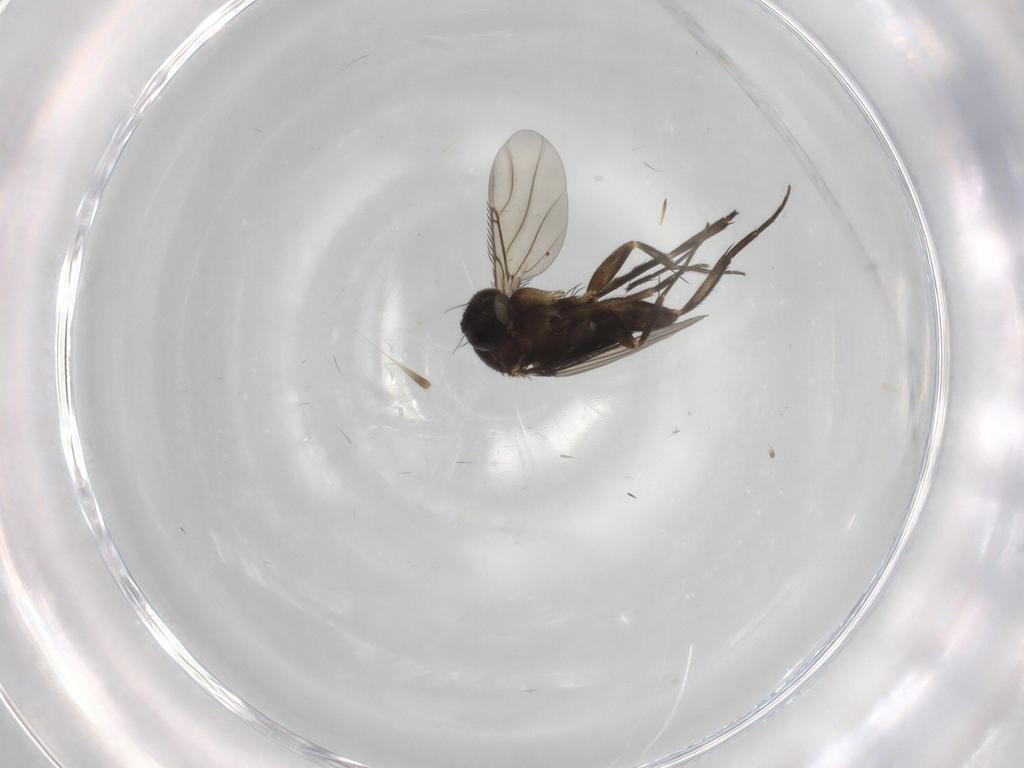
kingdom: Animalia
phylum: Arthropoda
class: Insecta
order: Diptera
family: Phoridae
